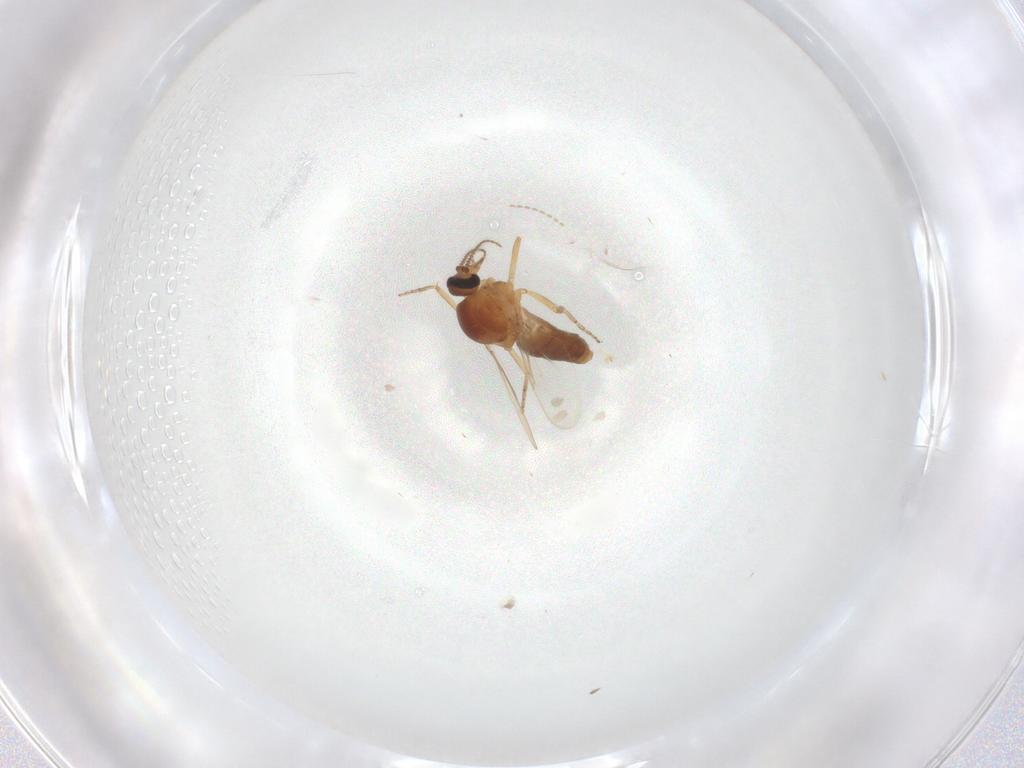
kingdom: Animalia
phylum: Arthropoda
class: Insecta
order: Diptera
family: Ceratopogonidae
